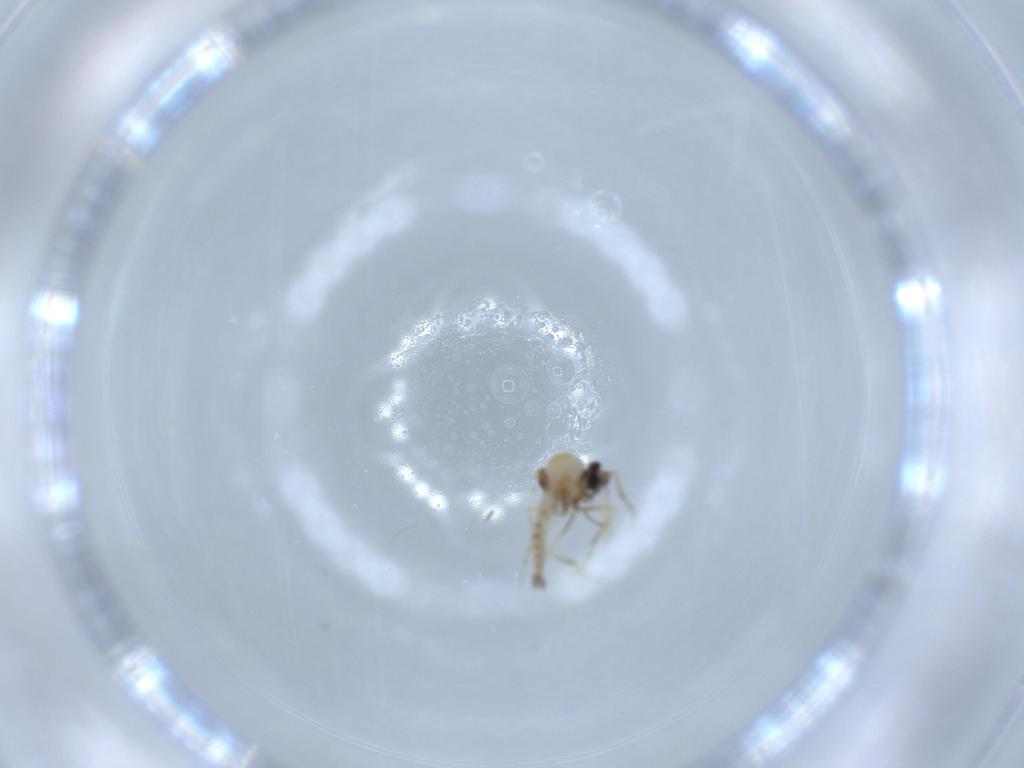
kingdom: Animalia
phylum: Arthropoda
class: Insecta
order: Diptera
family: Ceratopogonidae
